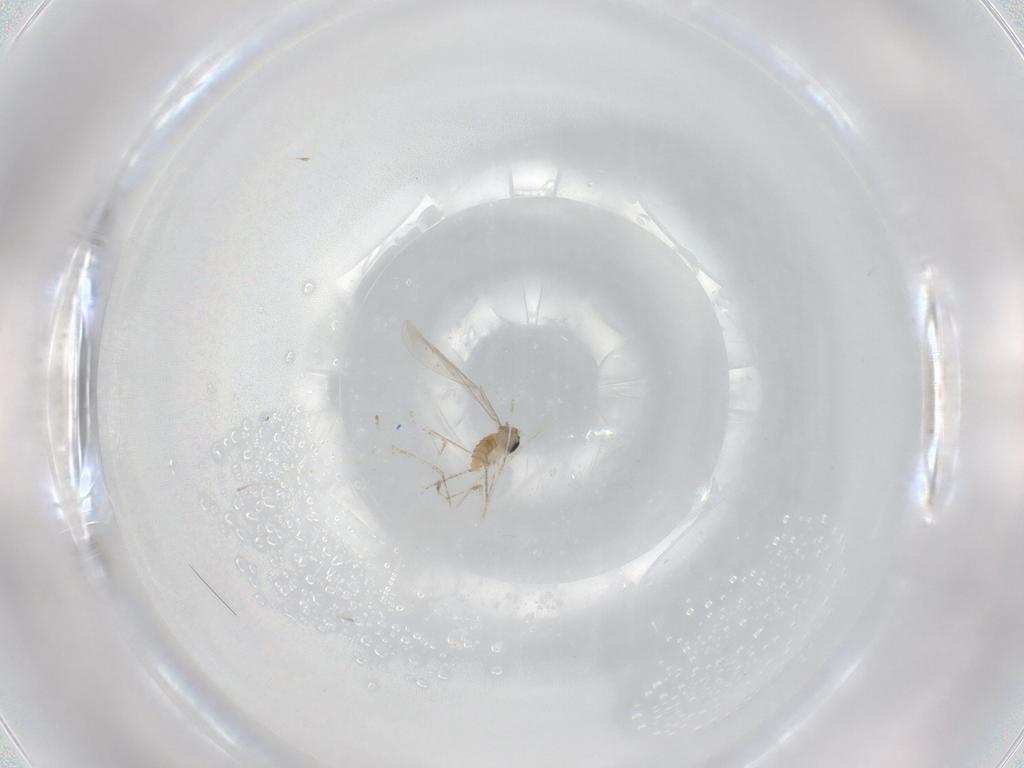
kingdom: Animalia
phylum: Arthropoda
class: Insecta
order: Diptera
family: Cecidomyiidae
